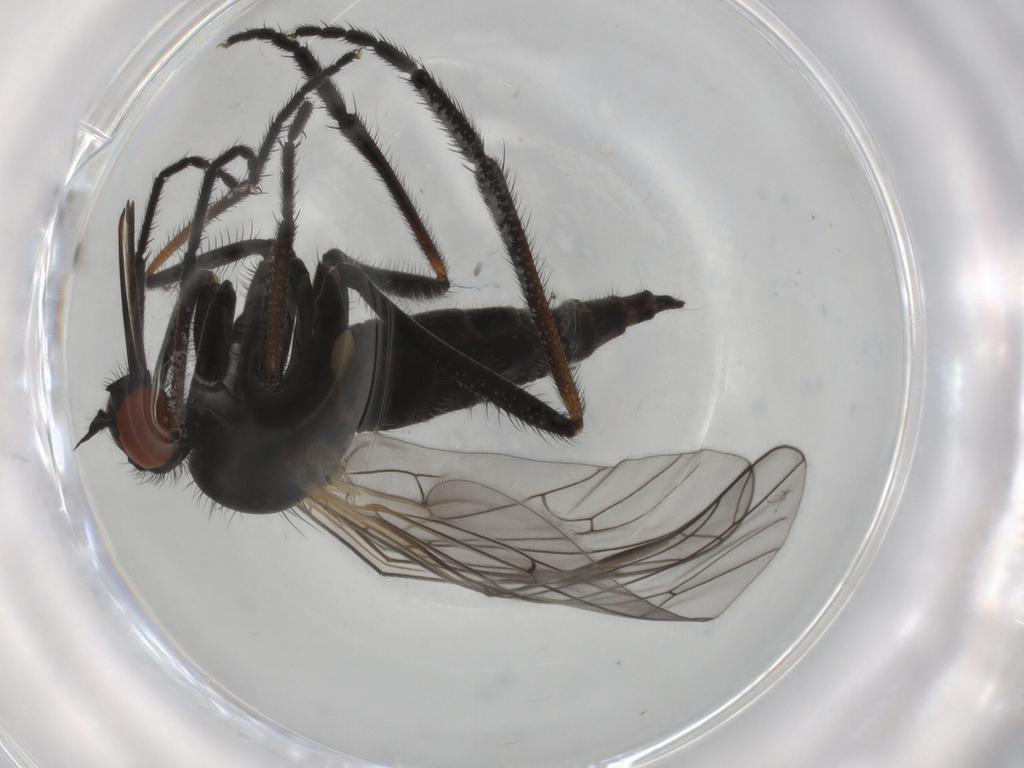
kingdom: Animalia
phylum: Arthropoda
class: Insecta
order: Diptera
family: Empididae
